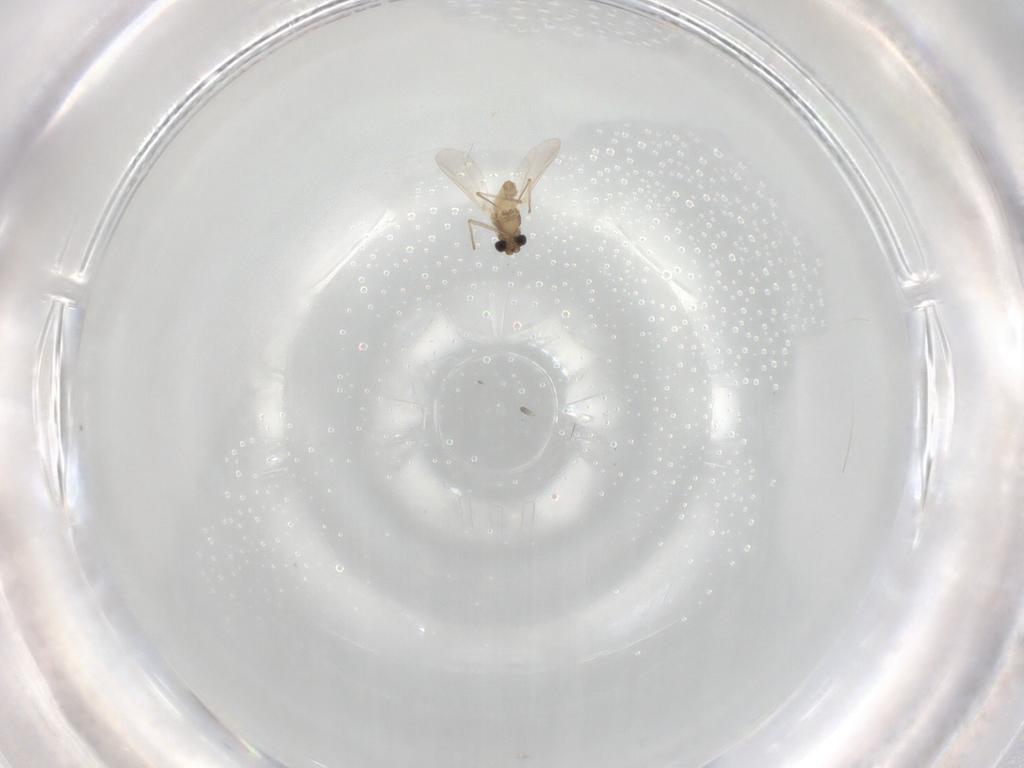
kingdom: Animalia
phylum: Arthropoda
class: Insecta
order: Diptera
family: Chironomidae
